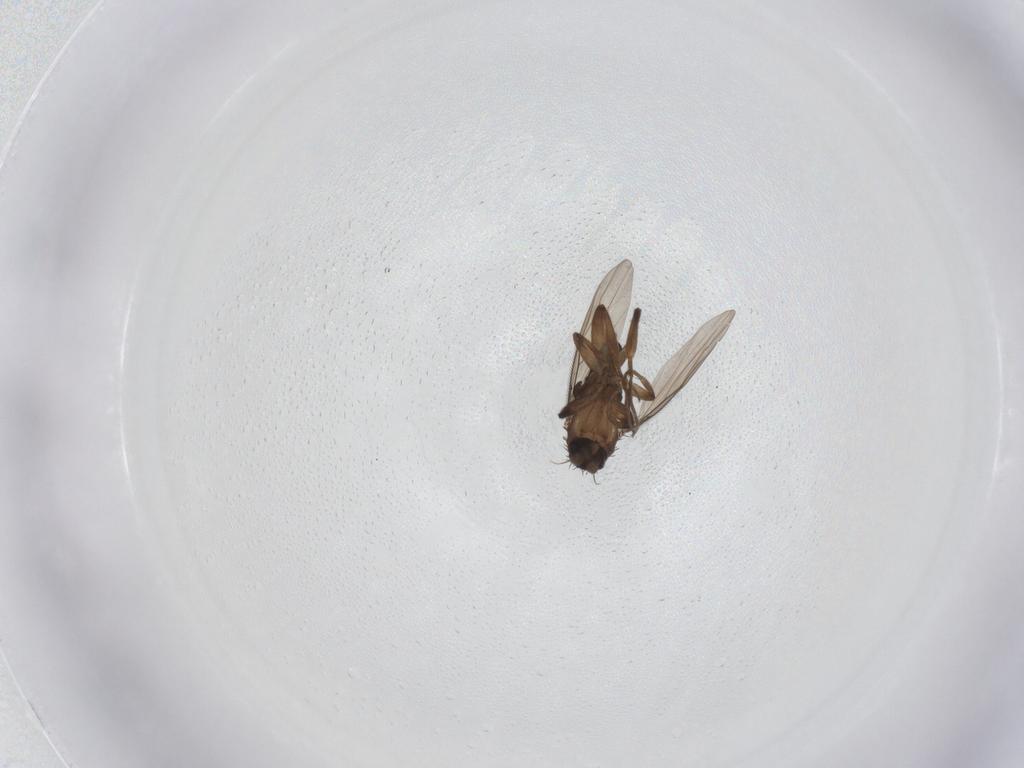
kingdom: Animalia
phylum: Arthropoda
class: Insecta
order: Diptera
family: Phoridae
